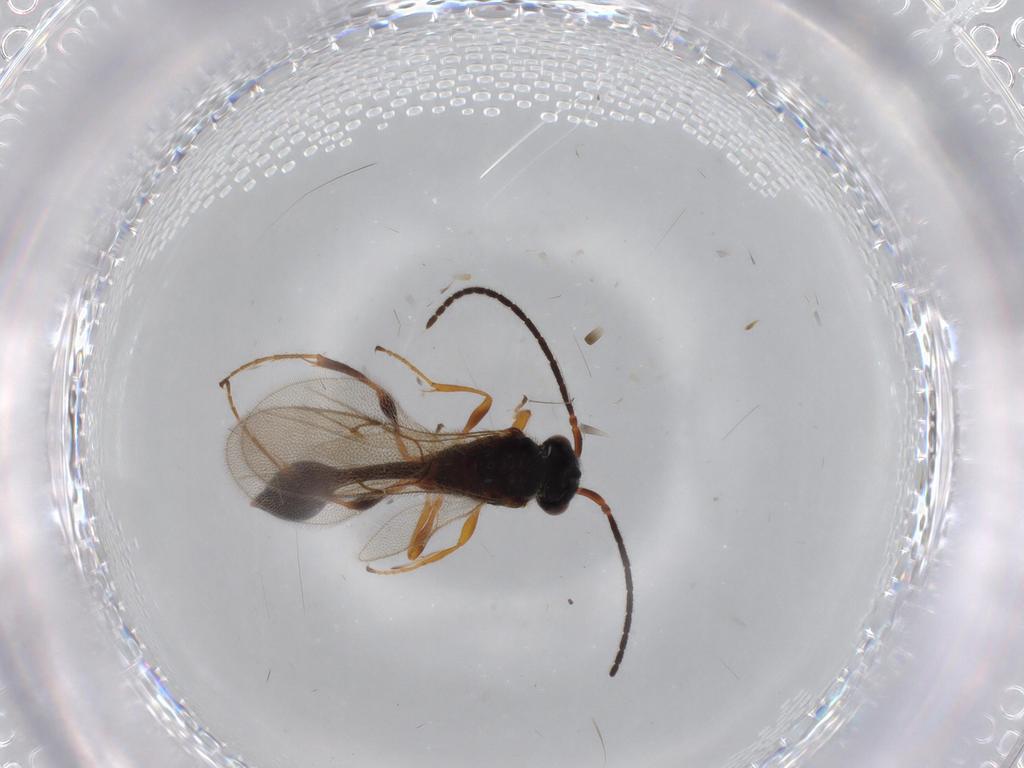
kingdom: Animalia
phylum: Arthropoda
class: Insecta
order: Hymenoptera
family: Diapriidae
